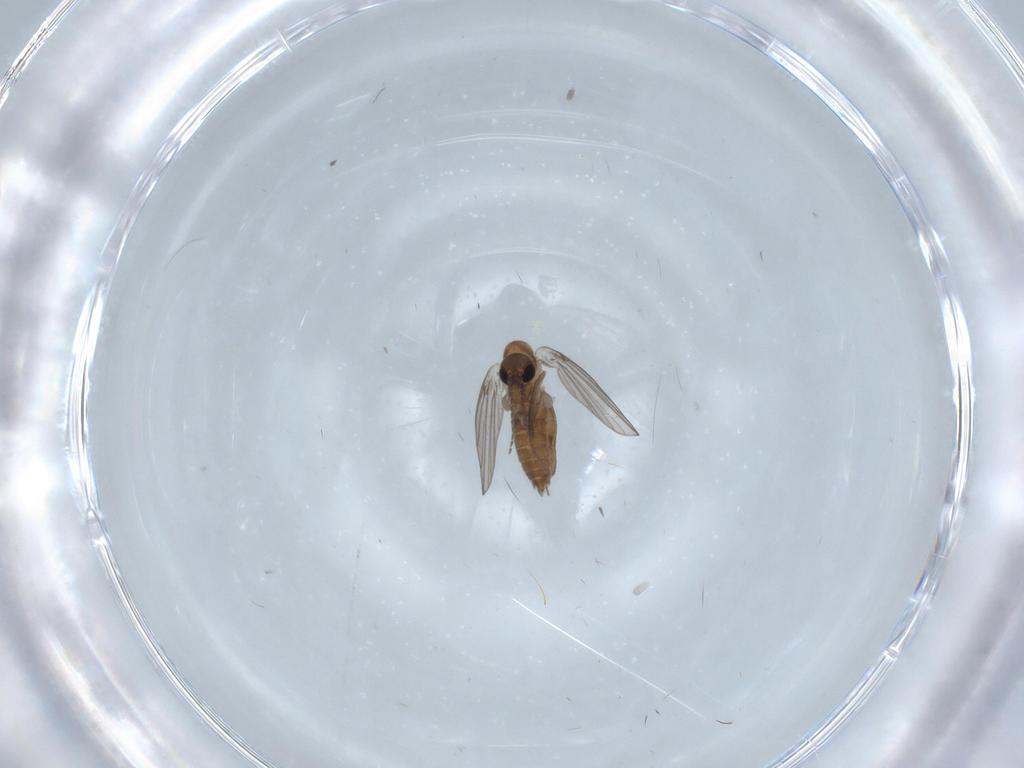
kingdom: Animalia
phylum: Arthropoda
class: Insecta
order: Diptera
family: Psychodidae
